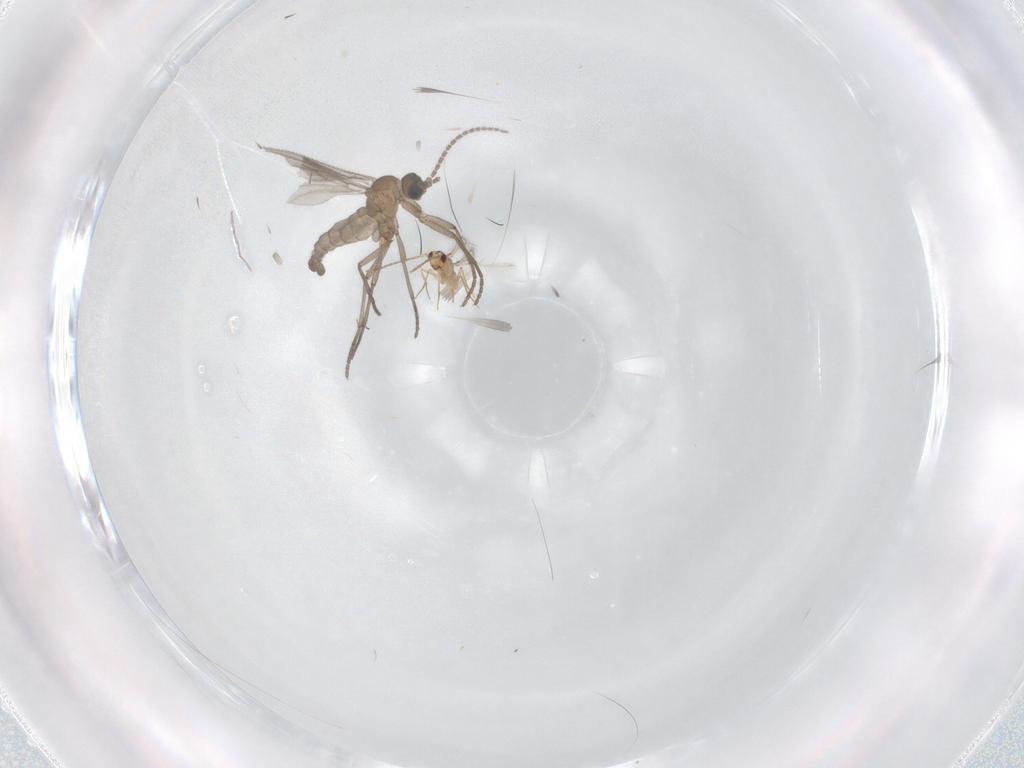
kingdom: Animalia
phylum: Arthropoda
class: Insecta
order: Diptera
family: Sciaridae
